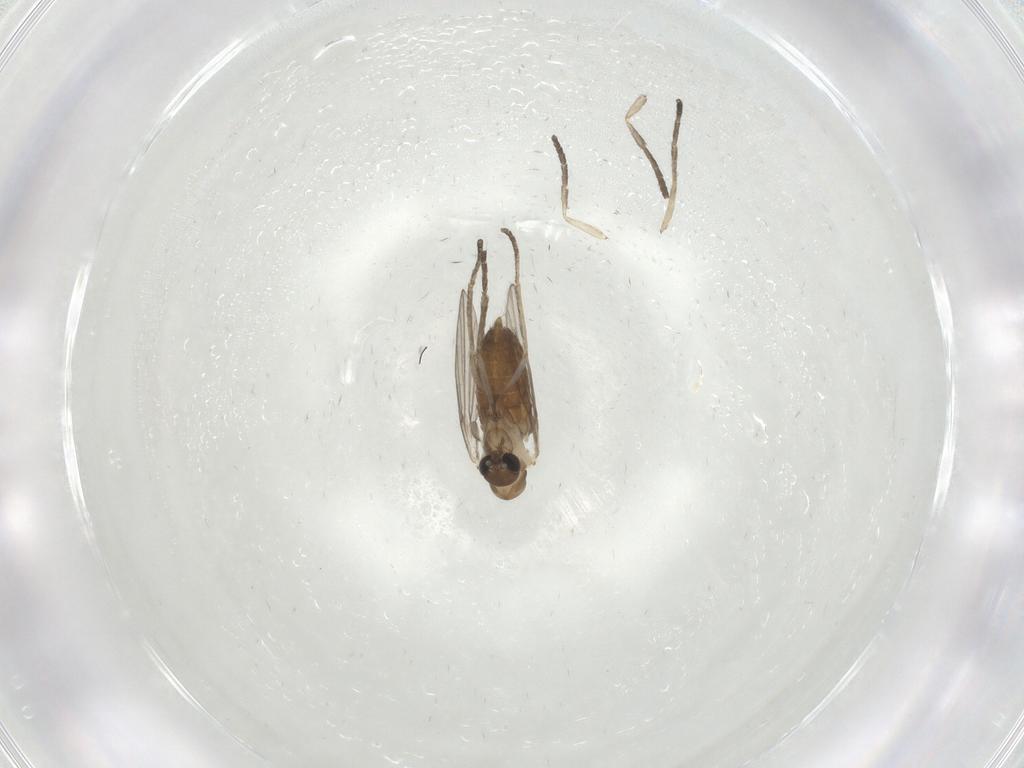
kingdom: Animalia
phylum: Arthropoda
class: Insecta
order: Diptera
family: Psychodidae
